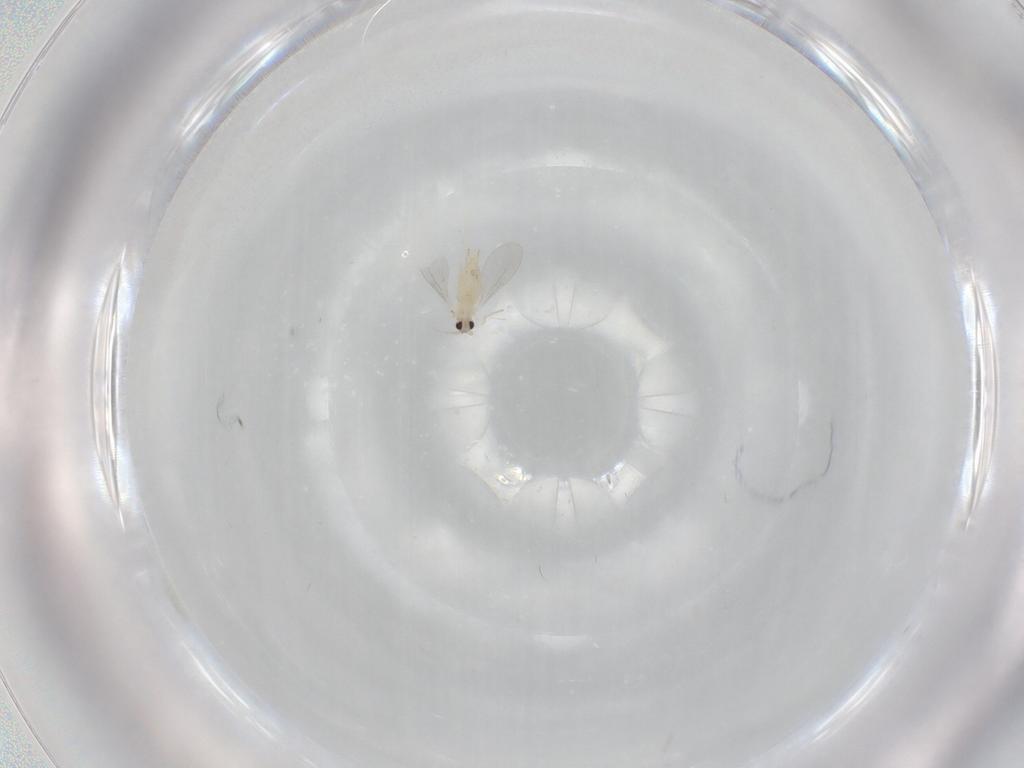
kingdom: Animalia
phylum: Arthropoda
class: Insecta
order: Diptera
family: Cecidomyiidae
